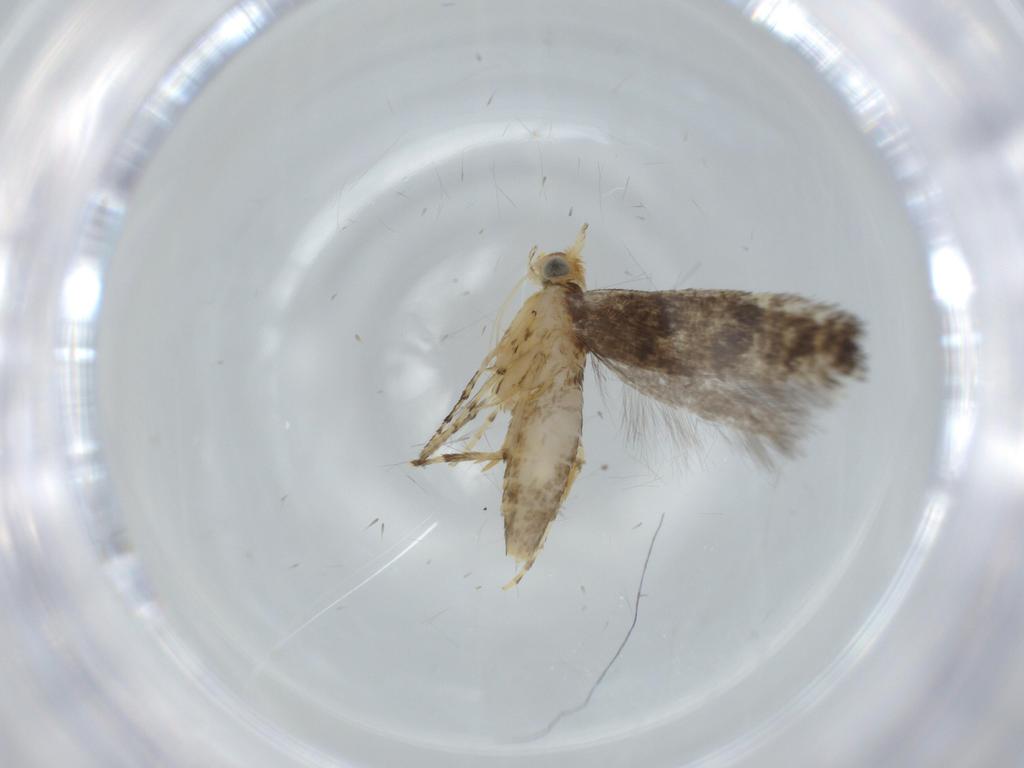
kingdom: Animalia
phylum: Arthropoda
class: Insecta
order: Lepidoptera
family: Argyresthiidae
